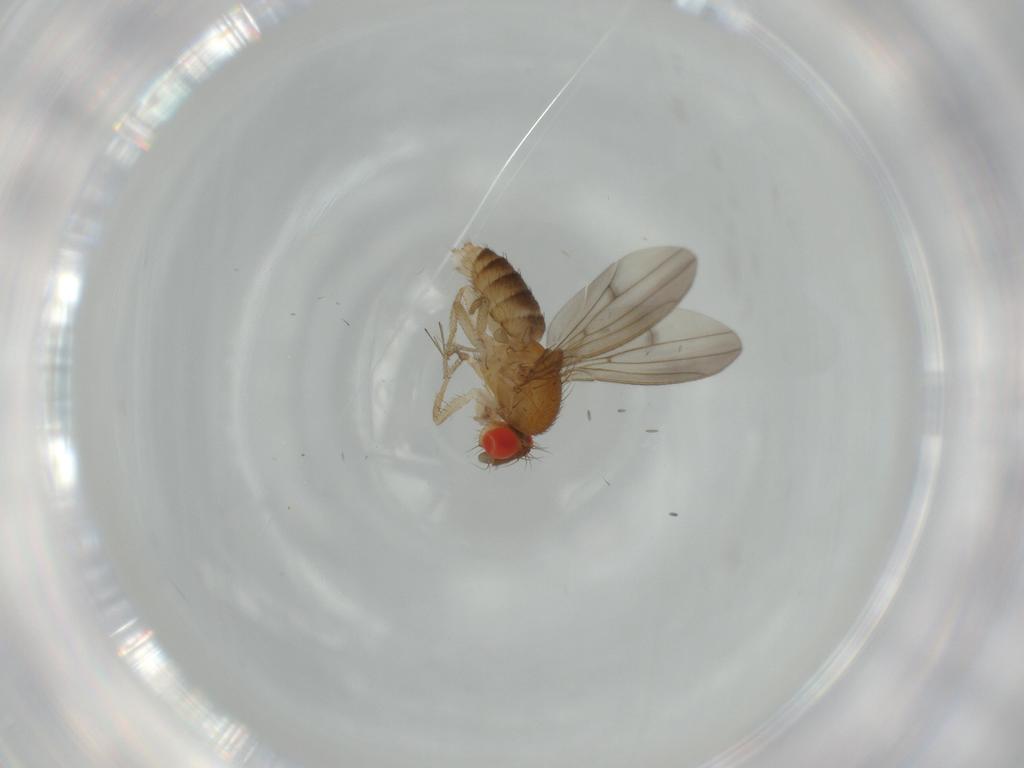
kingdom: Animalia
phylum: Arthropoda
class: Insecta
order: Diptera
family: Drosophilidae
